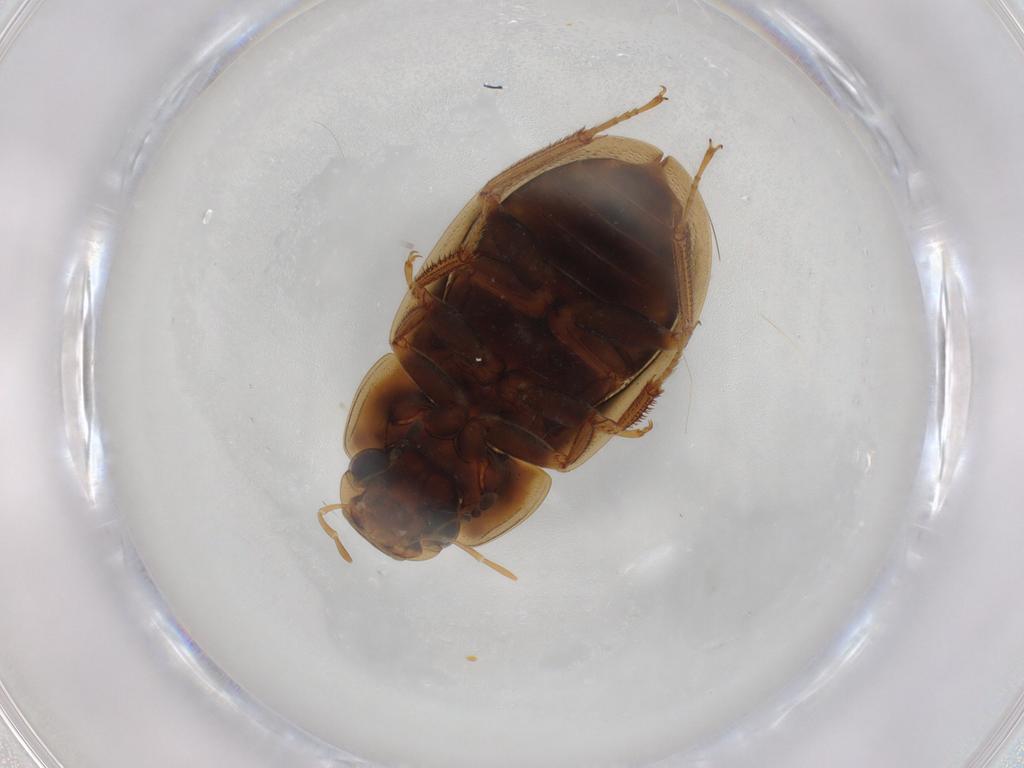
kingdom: Animalia
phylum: Arthropoda
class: Insecta
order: Coleoptera
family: Hydrophilidae
